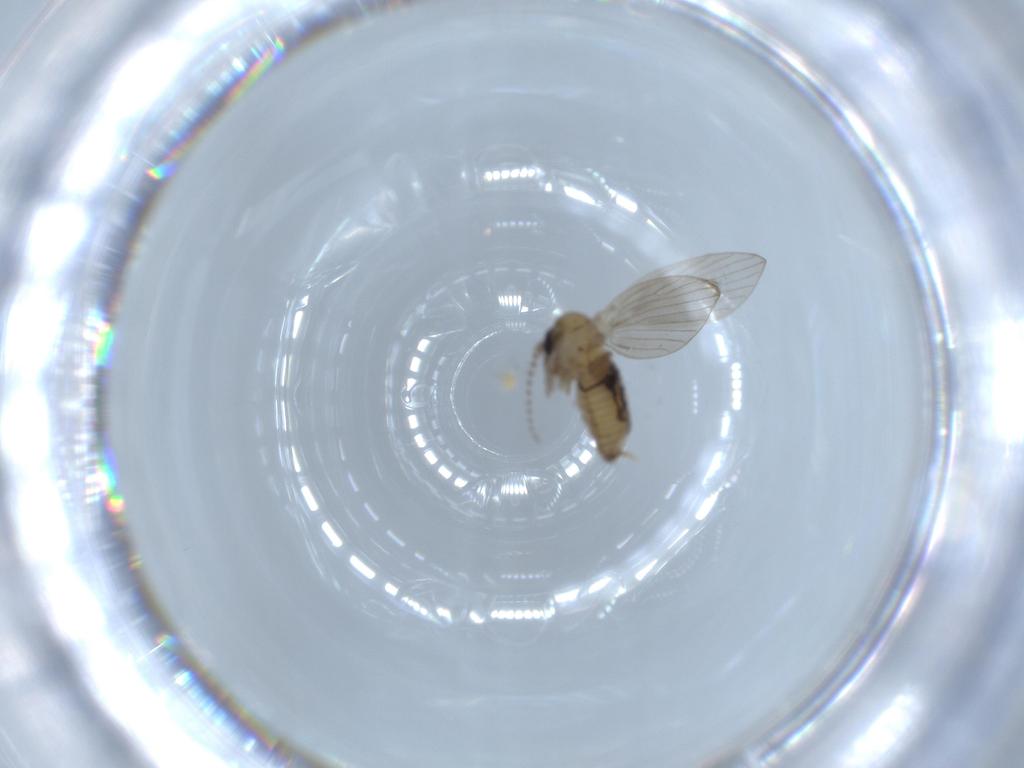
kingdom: Animalia
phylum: Arthropoda
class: Insecta
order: Diptera
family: Psychodidae
